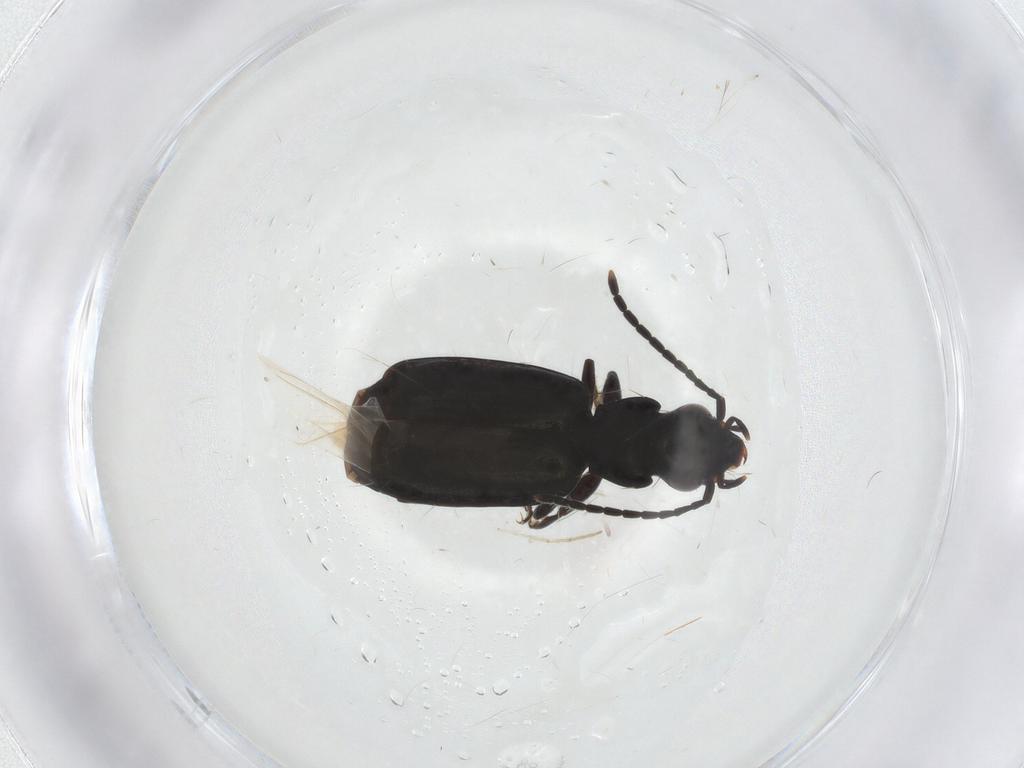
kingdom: Animalia
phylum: Arthropoda
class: Insecta
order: Coleoptera
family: Carabidae
